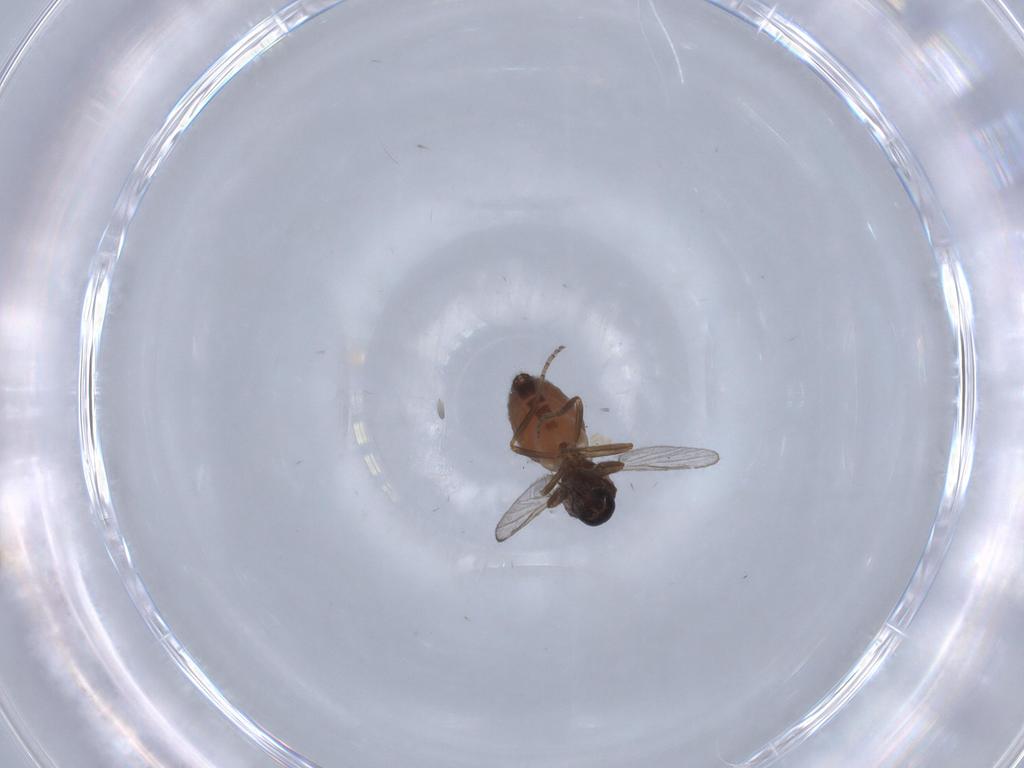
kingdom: Animalia
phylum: Arthropoda
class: Insecta
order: Diptera
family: Ceratopogonidae
